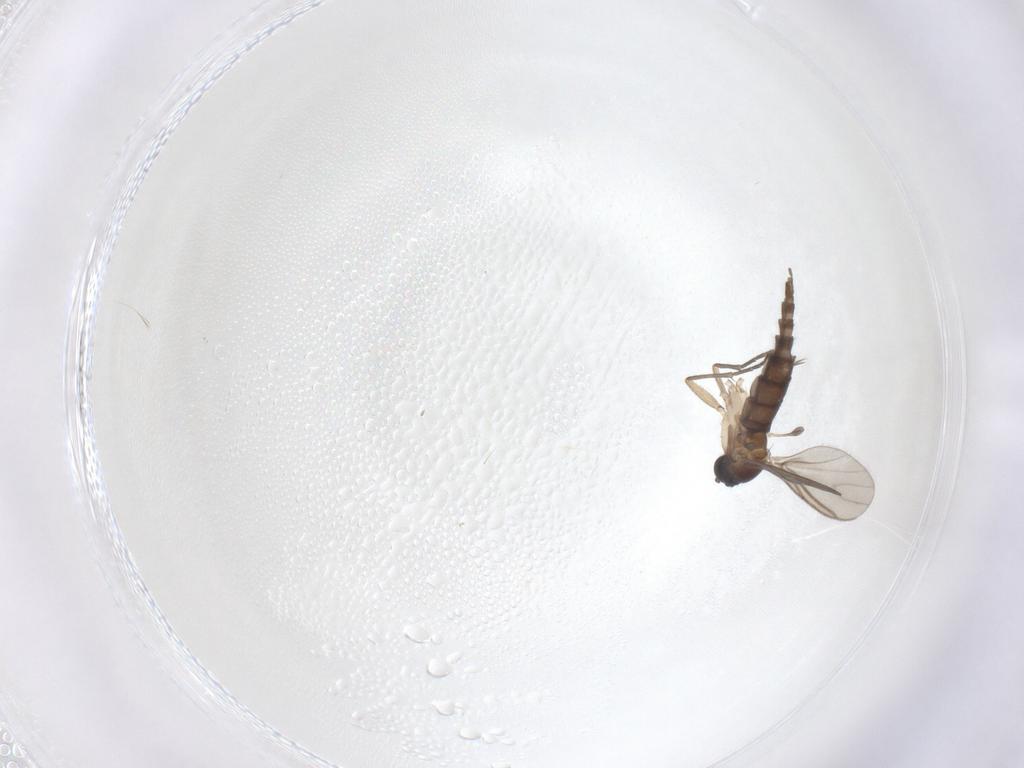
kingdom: Animalia
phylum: Arthropoda
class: Insecta
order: Diptera
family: Sciaridae
